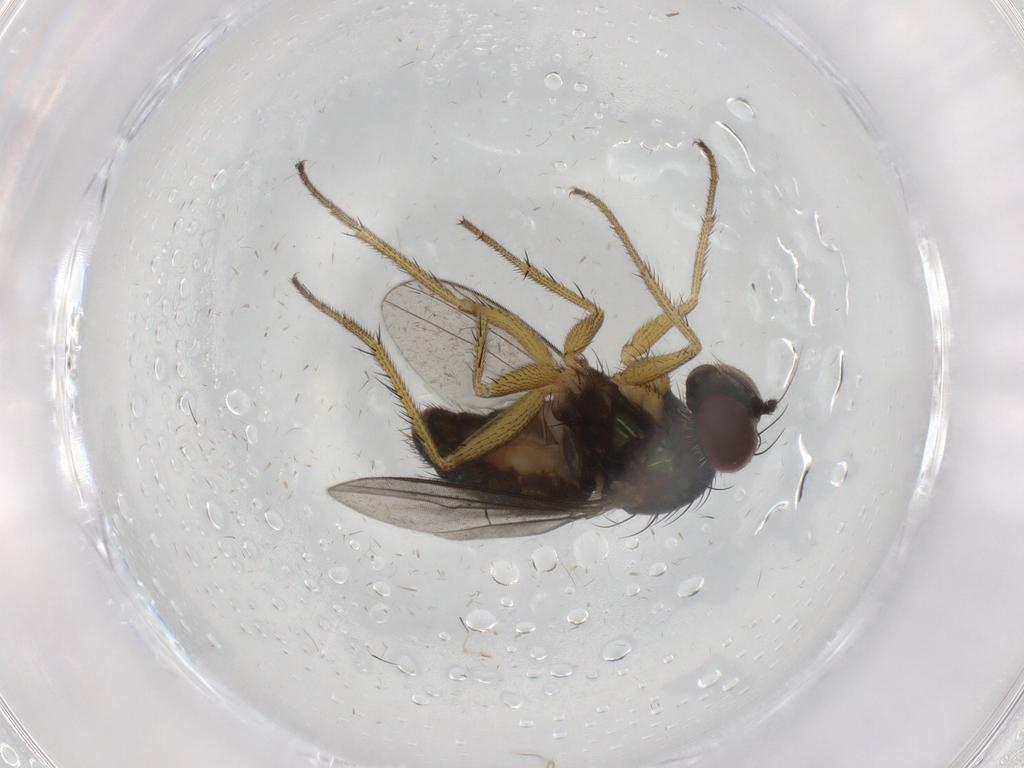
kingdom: Animalia
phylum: Arthropoda
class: Insecta
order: Diptera
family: Dolichopodidae
